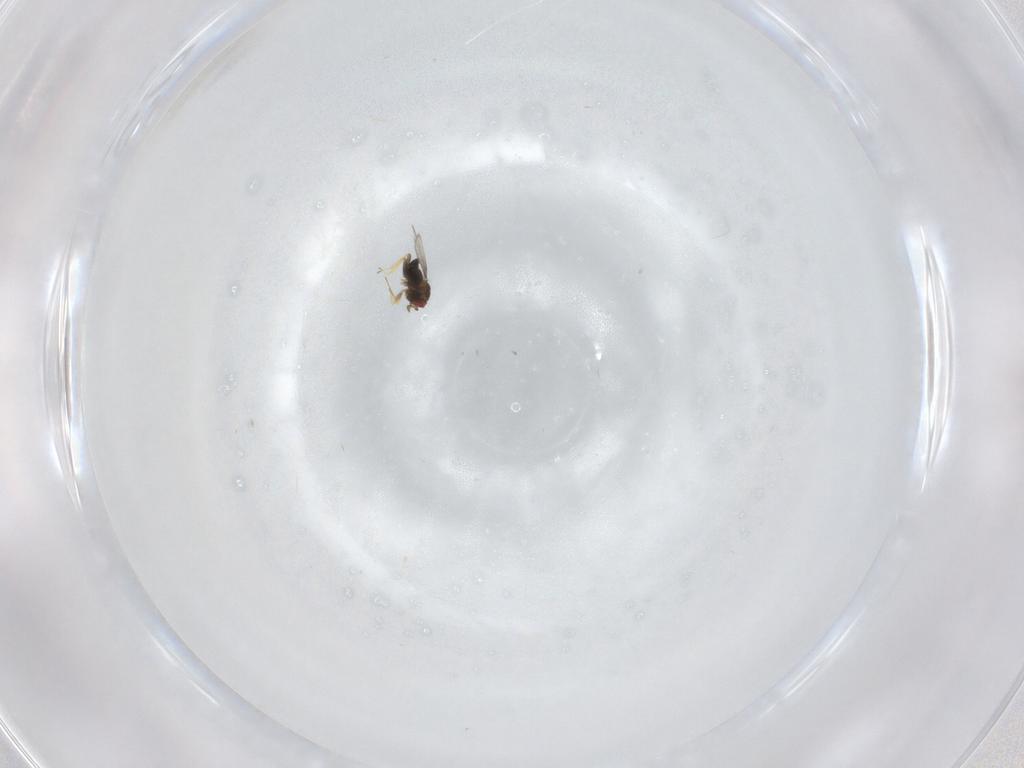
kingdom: Animalia
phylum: Arthropoda
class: Insecta
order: Hymenoptera
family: Trichogrammatidae
